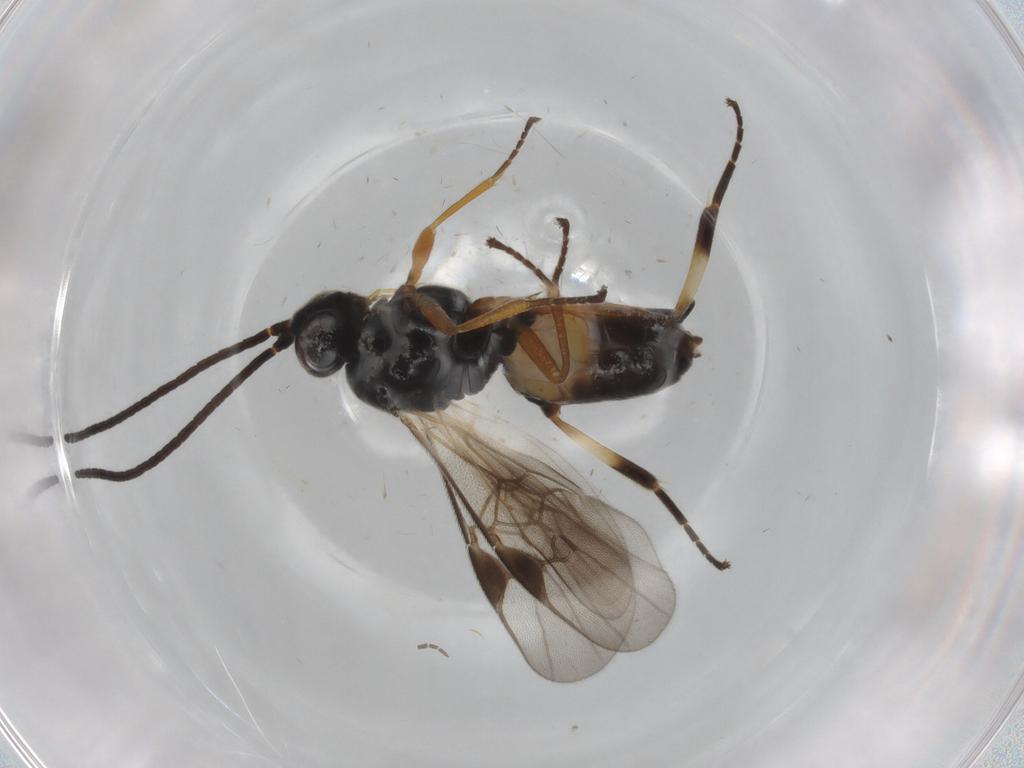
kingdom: Animalia
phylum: Arthropoda
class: Insecta
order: Hymenoptera
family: Braconidae
